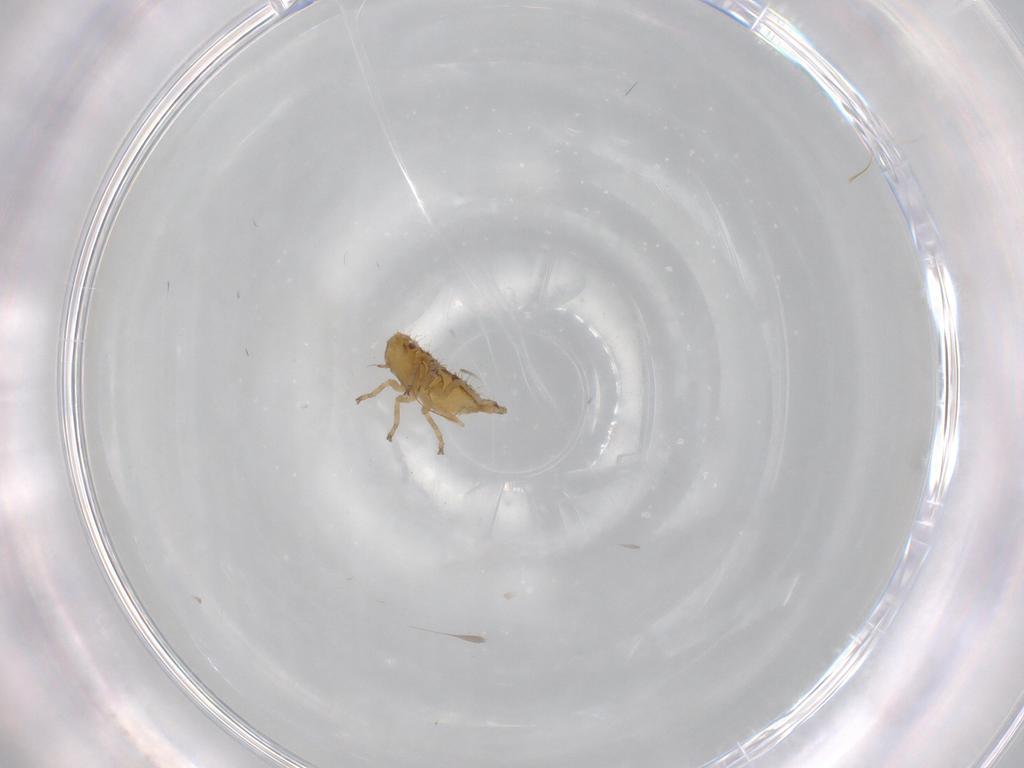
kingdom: Animalia
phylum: Arthropoda
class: Insecta
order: Hemiptera
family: Membracidae
